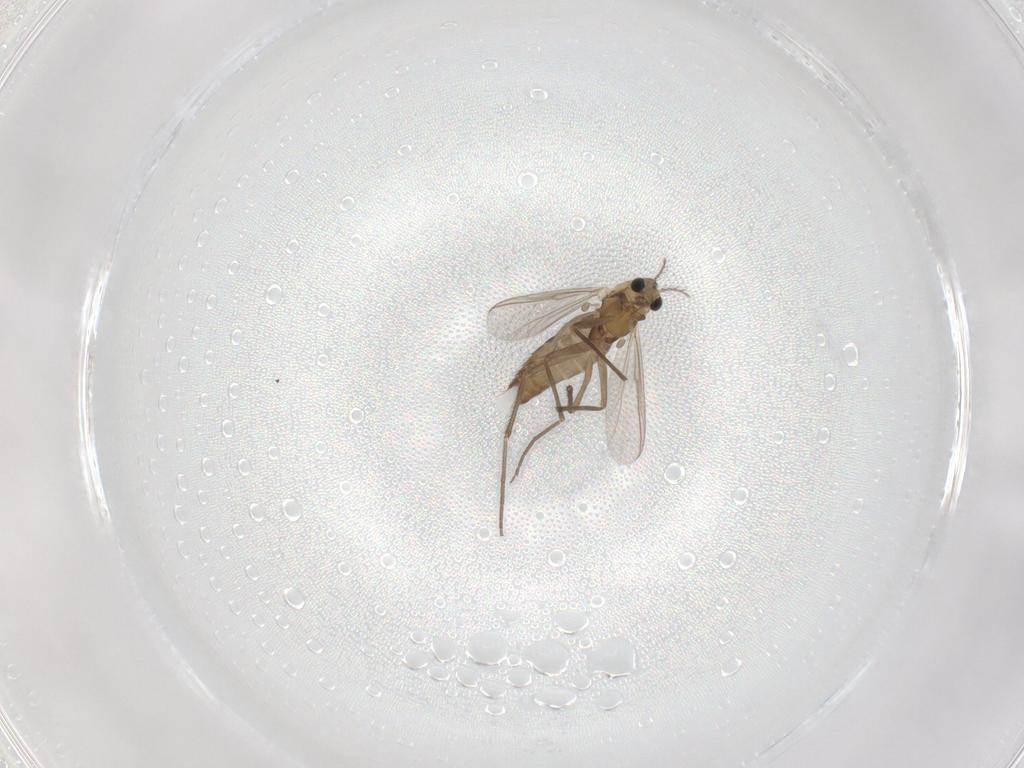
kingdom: Animalia
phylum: Arthropoda
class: Insecta
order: Diptera
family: Ceratopogonidae
